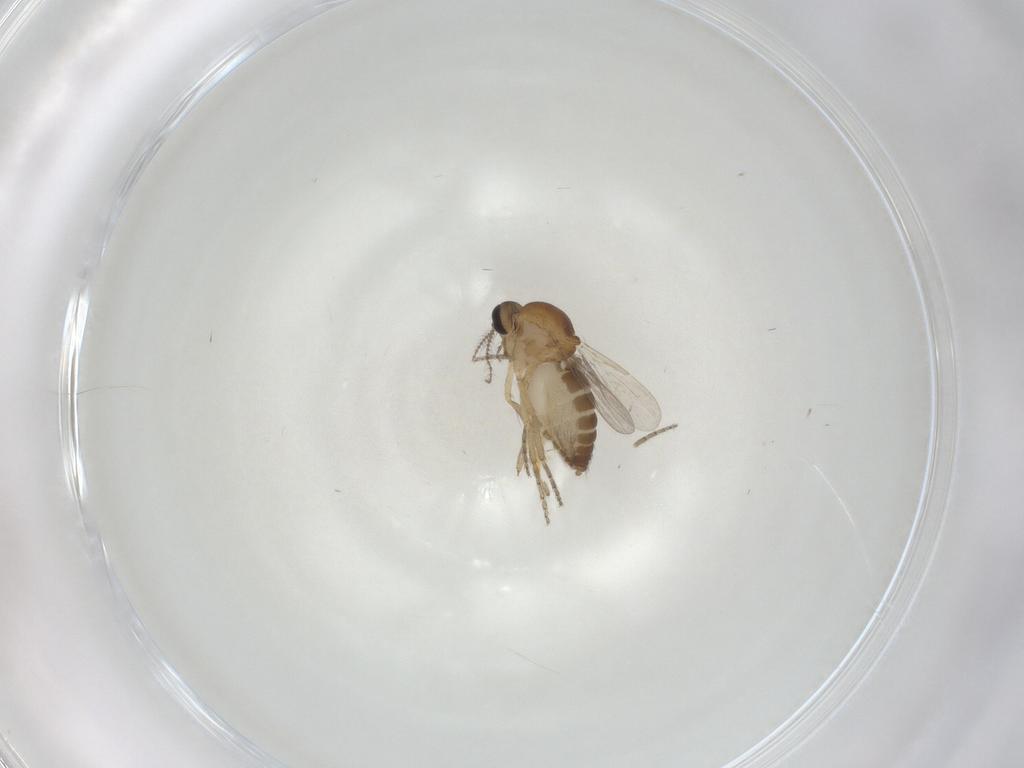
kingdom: Animalia
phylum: Arthropoda
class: Insecta
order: Diptera
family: Ceratopogonidae
